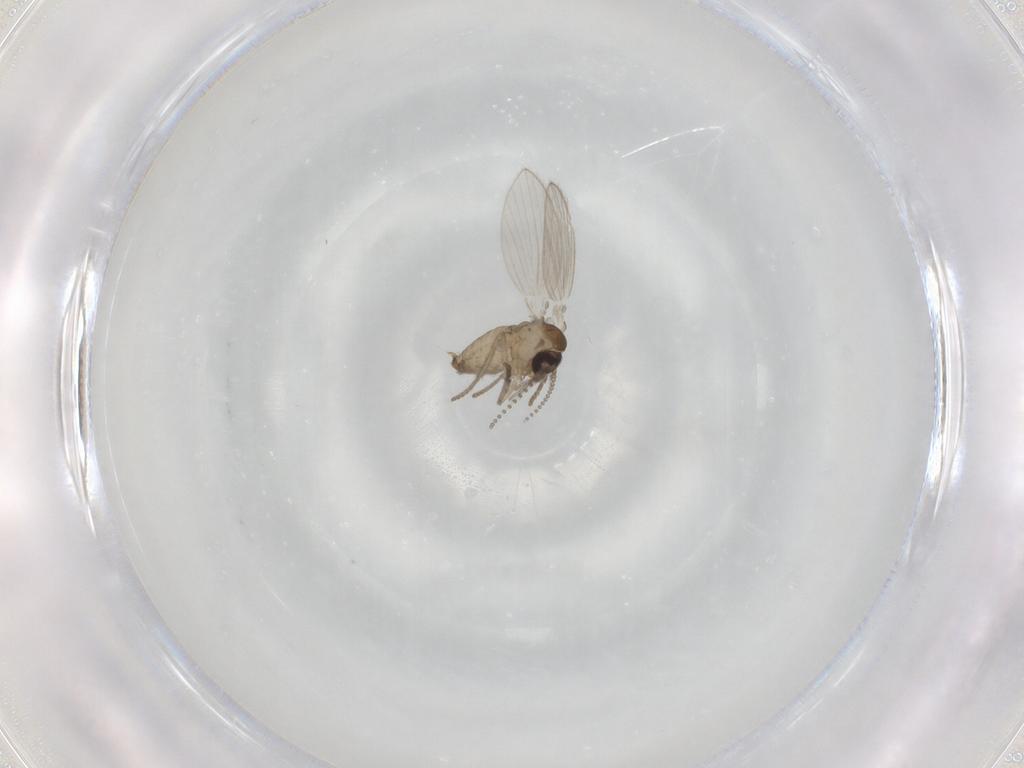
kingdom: Animalia
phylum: Arthropoda
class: Insecta
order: Diptera
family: Psychodidae
